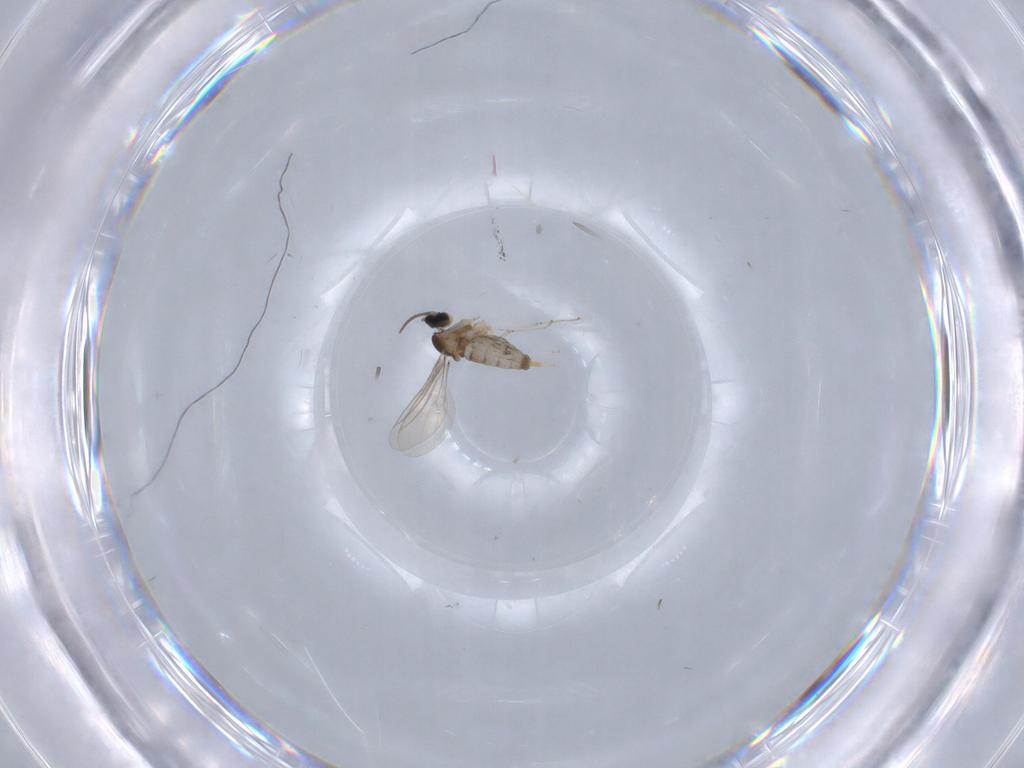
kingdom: Animalia
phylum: Arthropoda
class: Insecta
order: Diptera
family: Cecidomyiidae
